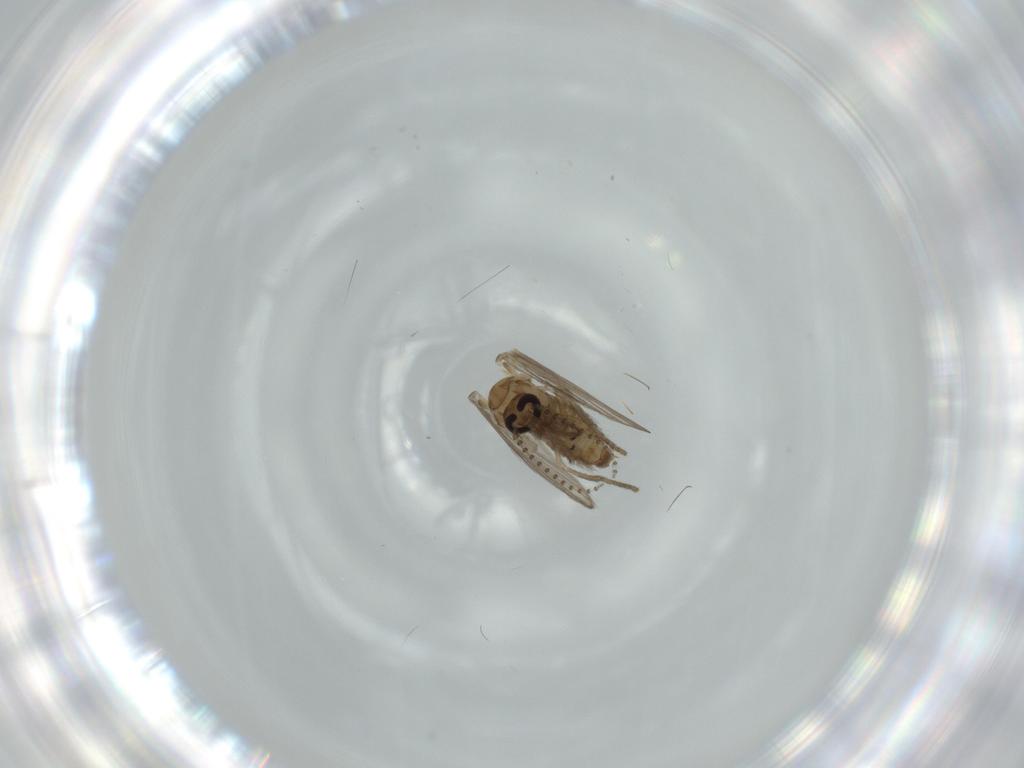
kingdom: Animalia
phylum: Arthropoda
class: Insecta
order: Diptera
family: Psychodidae
